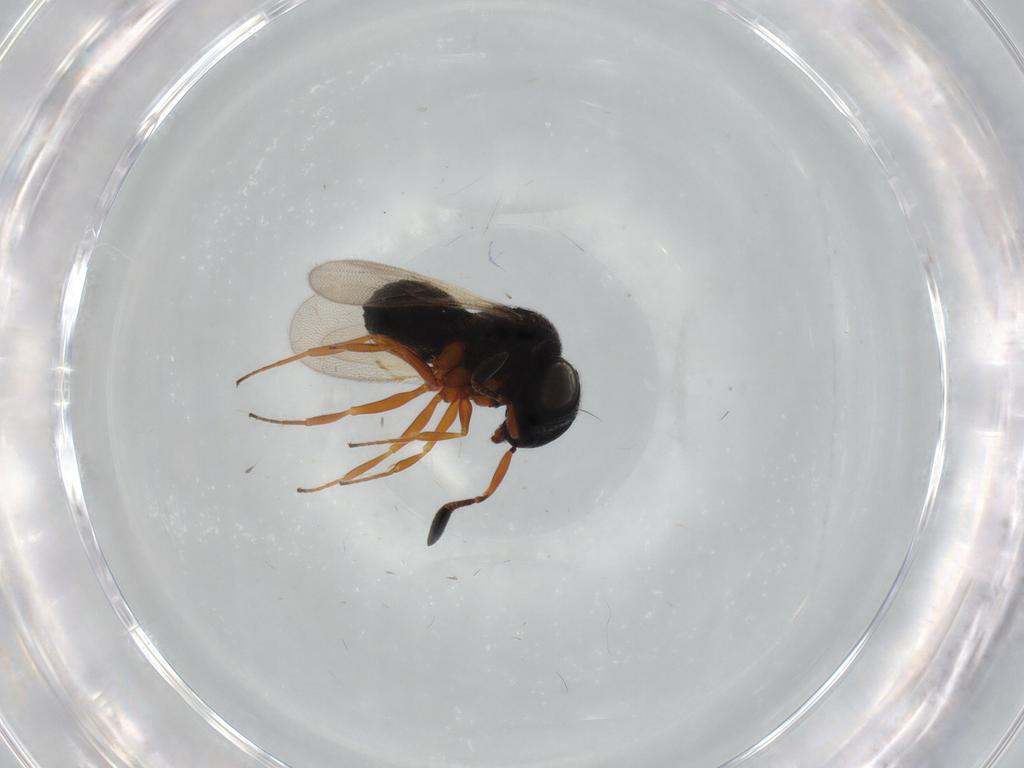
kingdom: Animalia
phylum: Arthropoda
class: Insecta
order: Hymenoptera
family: Scelionidae
